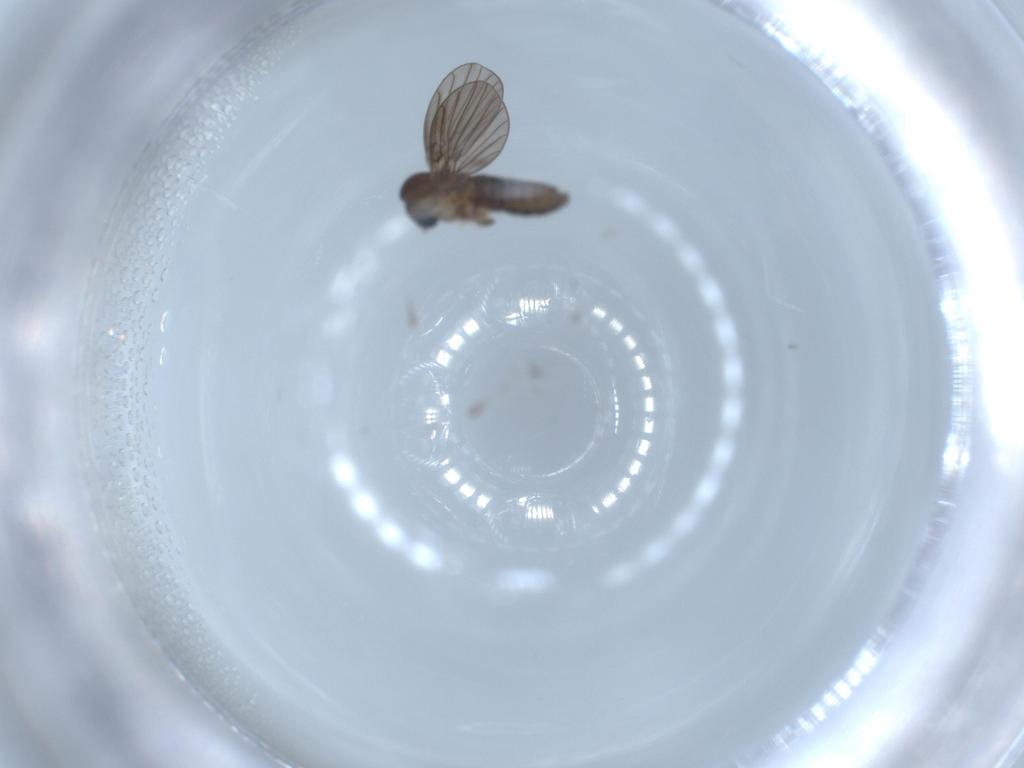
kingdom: Animalia
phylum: Arthropoda
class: Insecta
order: Diptera
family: Psychodidae
